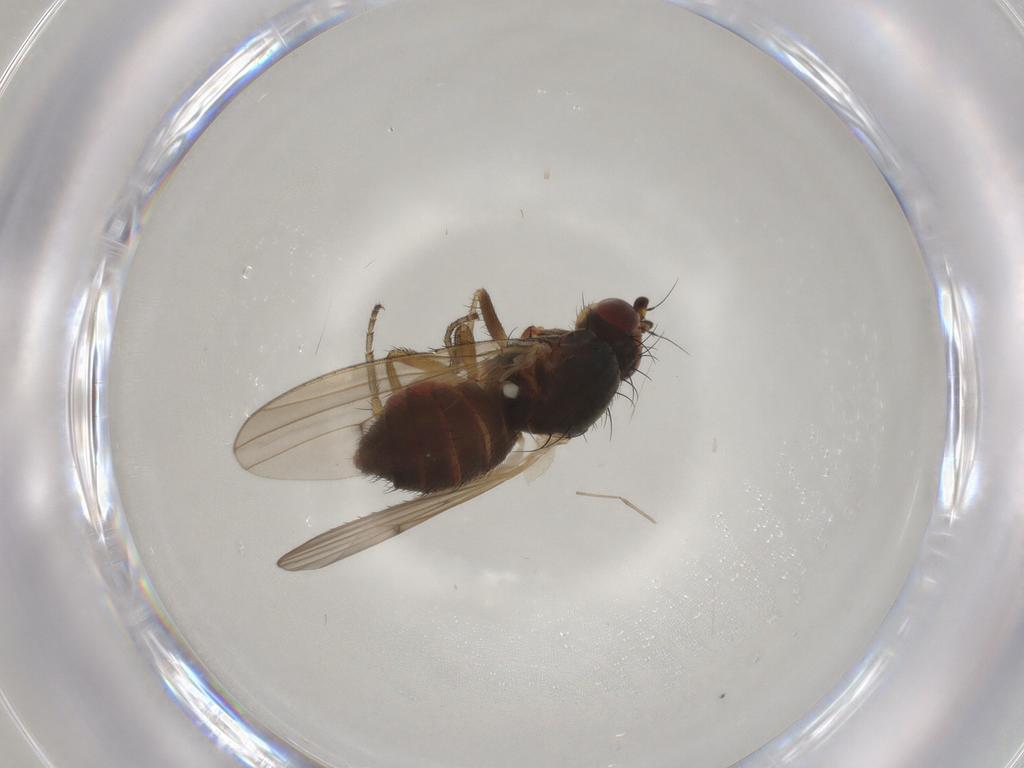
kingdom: Animalia
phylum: Arthropoda
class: Insecta
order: Diptera
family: Heleomyzidae
